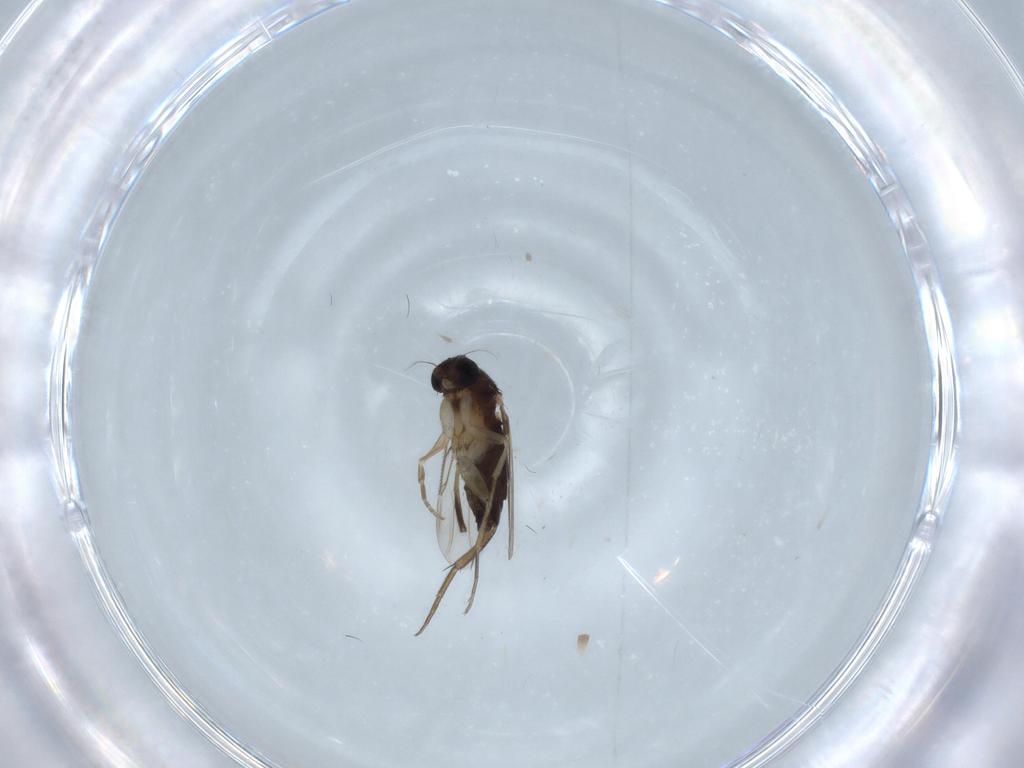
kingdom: Animalia
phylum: Arthropoda
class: Insecta
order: Diptera
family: Phoridae
